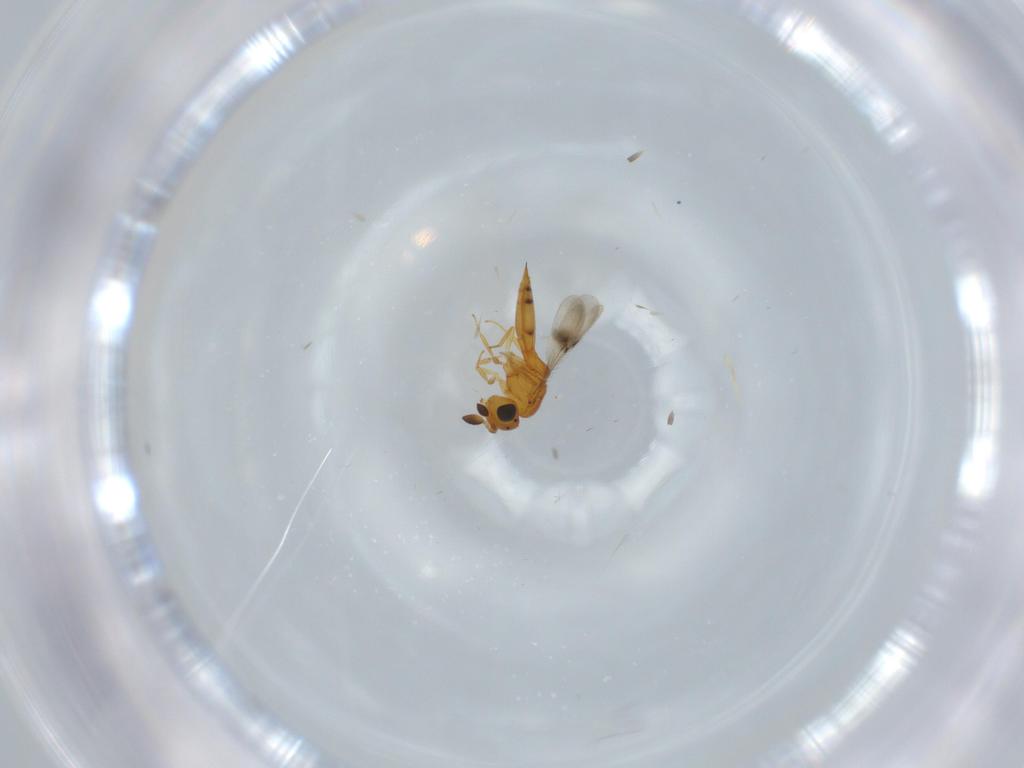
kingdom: Animalia
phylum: Arthropoda
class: Insecta
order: Hymenoptera
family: Scelionidae
